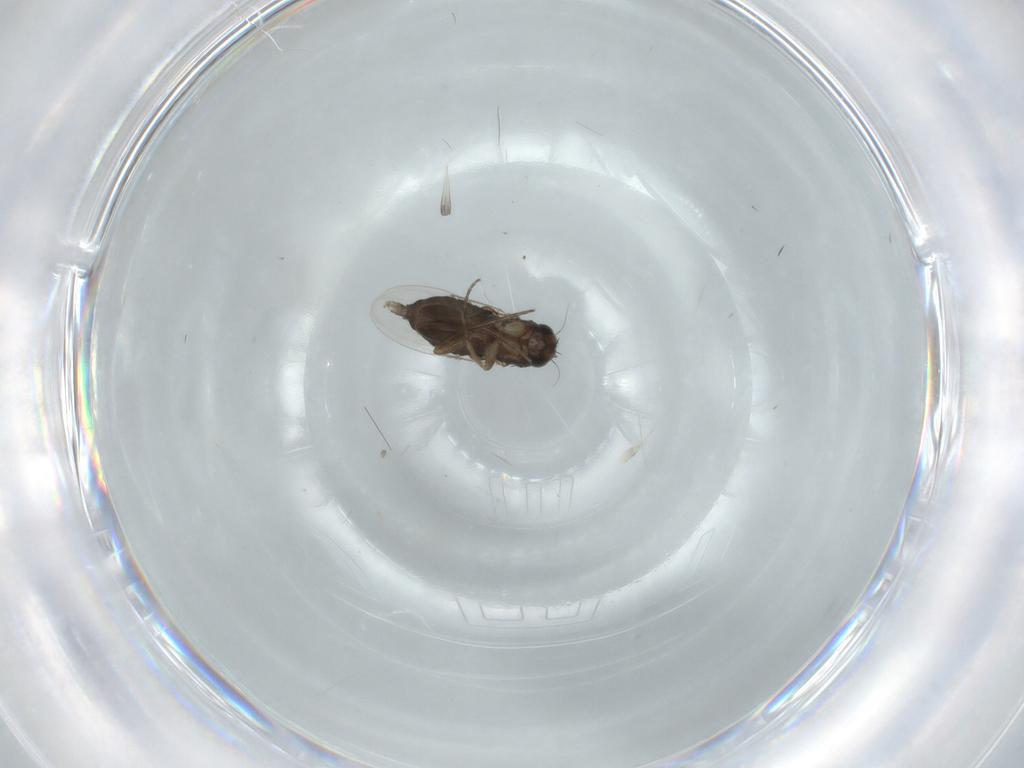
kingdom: Animalia
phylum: Arthropoda
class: Insecta
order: Diptera
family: Phoridae
